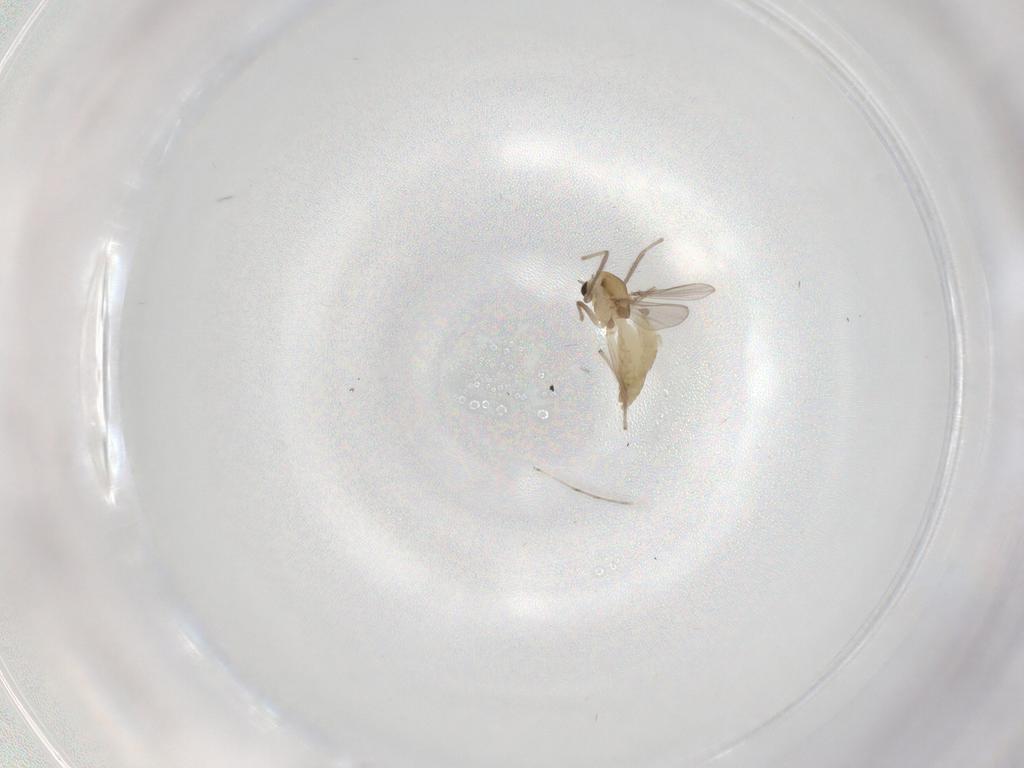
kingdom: Animalia
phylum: Arthropoda
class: Insecta
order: Diptera
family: Chironomidae
